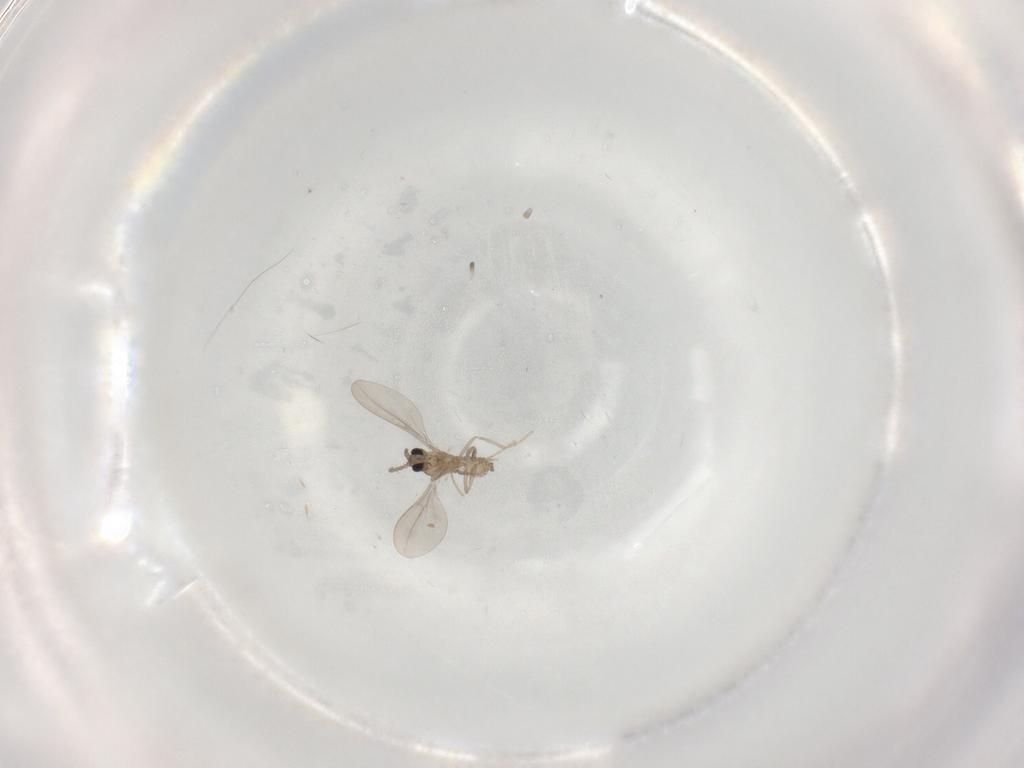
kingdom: Animalia
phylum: Arthropoda
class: Insecta
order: Diptera
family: Cecidomyiidae
